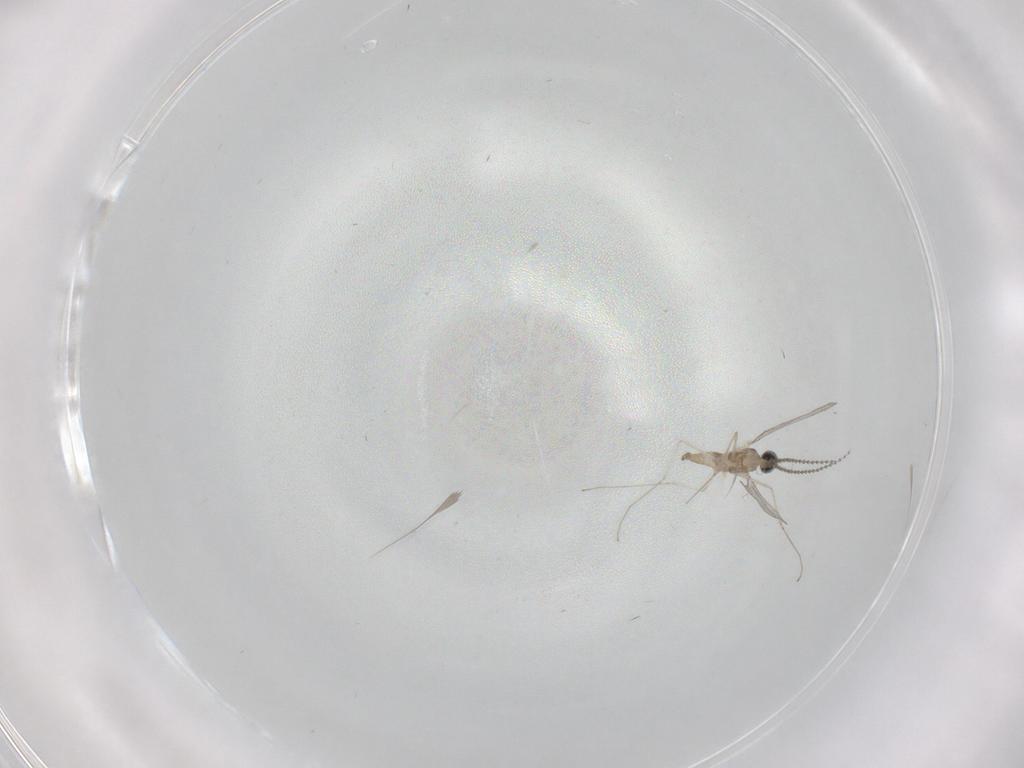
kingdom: Animalia
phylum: Arthropoda
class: Insecta
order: Diptera
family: Cecidomyiidae
